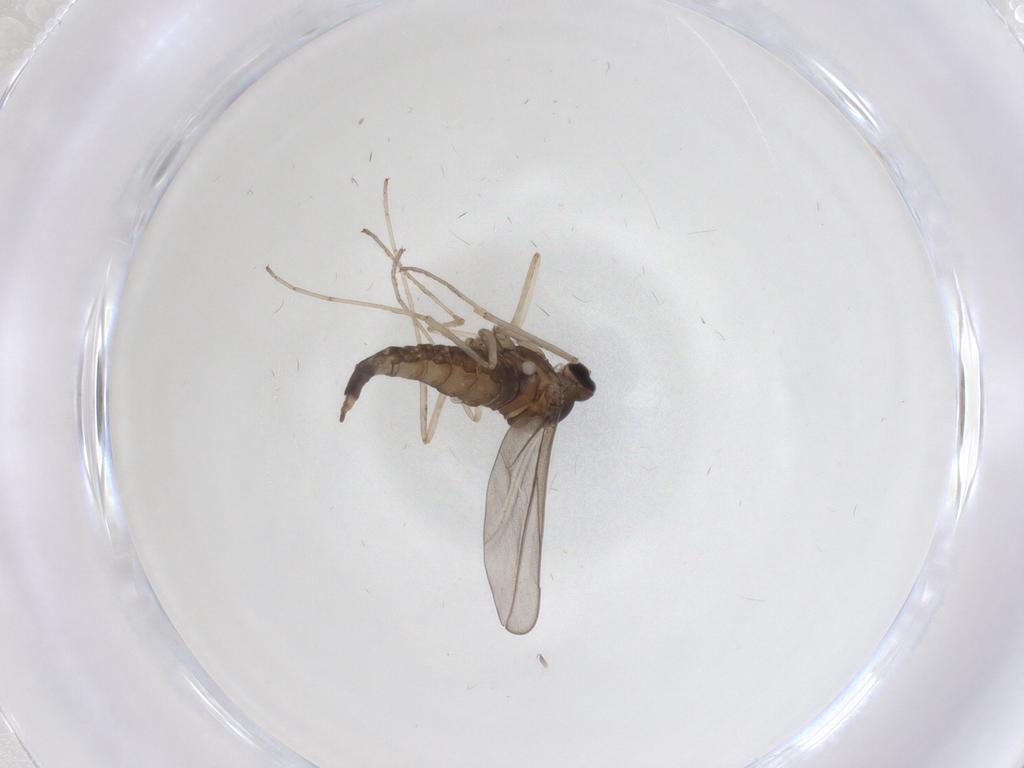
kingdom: Animalia
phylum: Arthropoda
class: Insecta
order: Diptera
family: Cecidomyiidae
